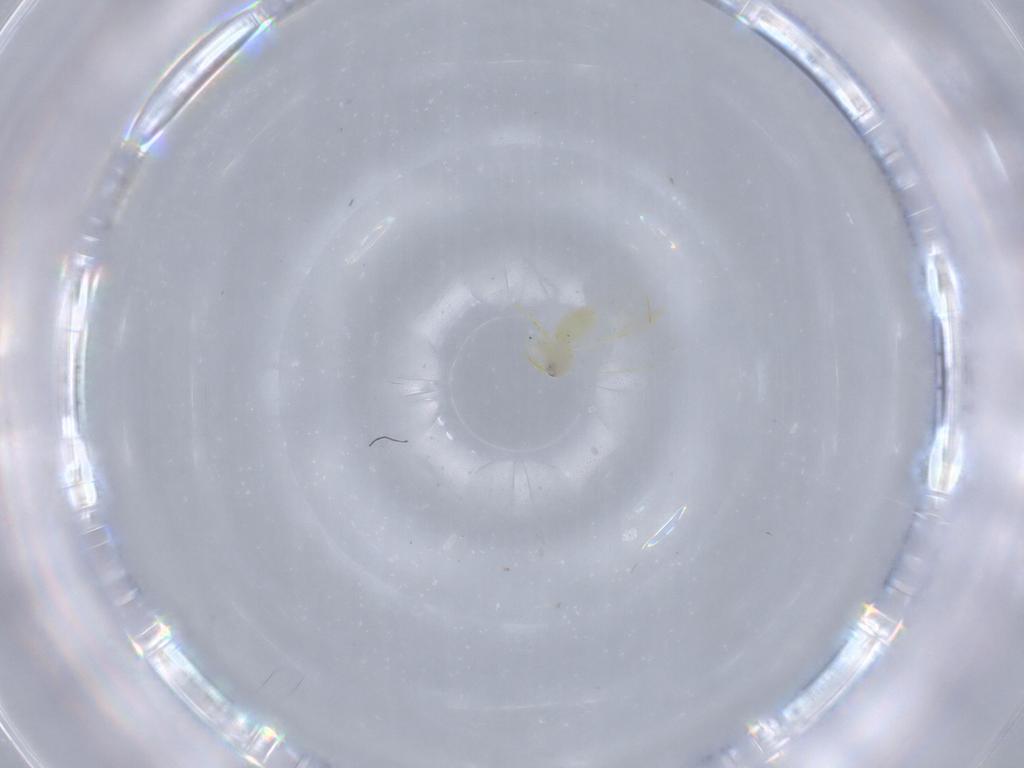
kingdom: Animalia
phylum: Arthropoda
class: Insecta
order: Hemiptera
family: Aleyrodidae
